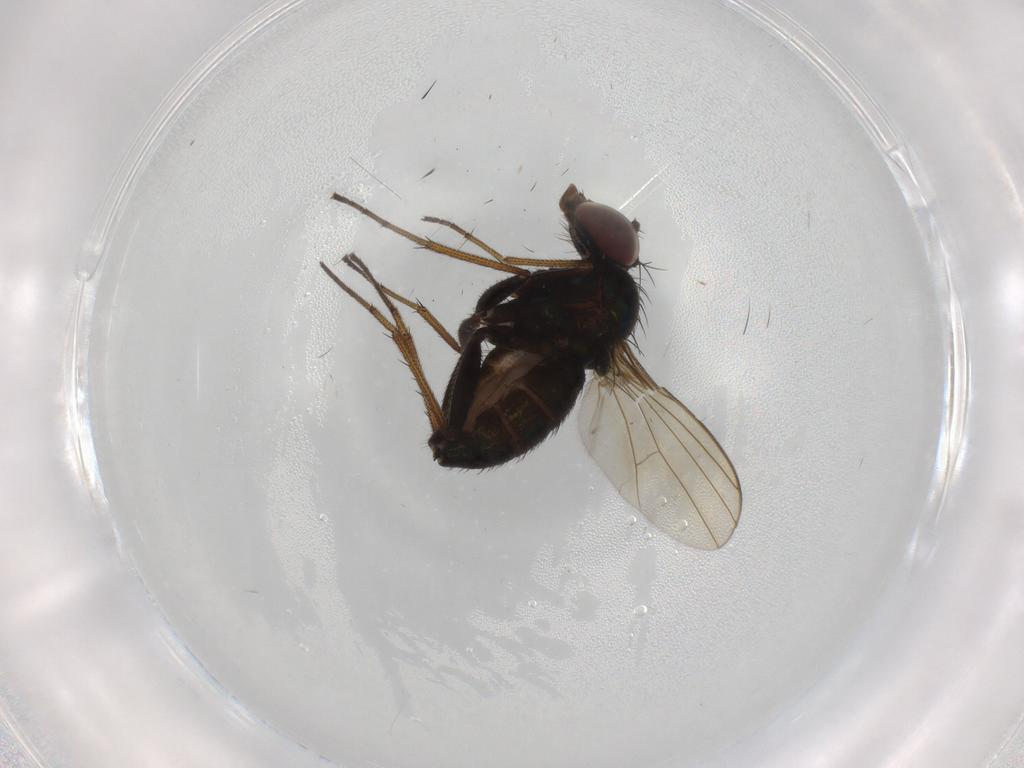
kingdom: Animalia
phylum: Arthropoda
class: Insecta
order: Diptera
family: Dolichopodidae
